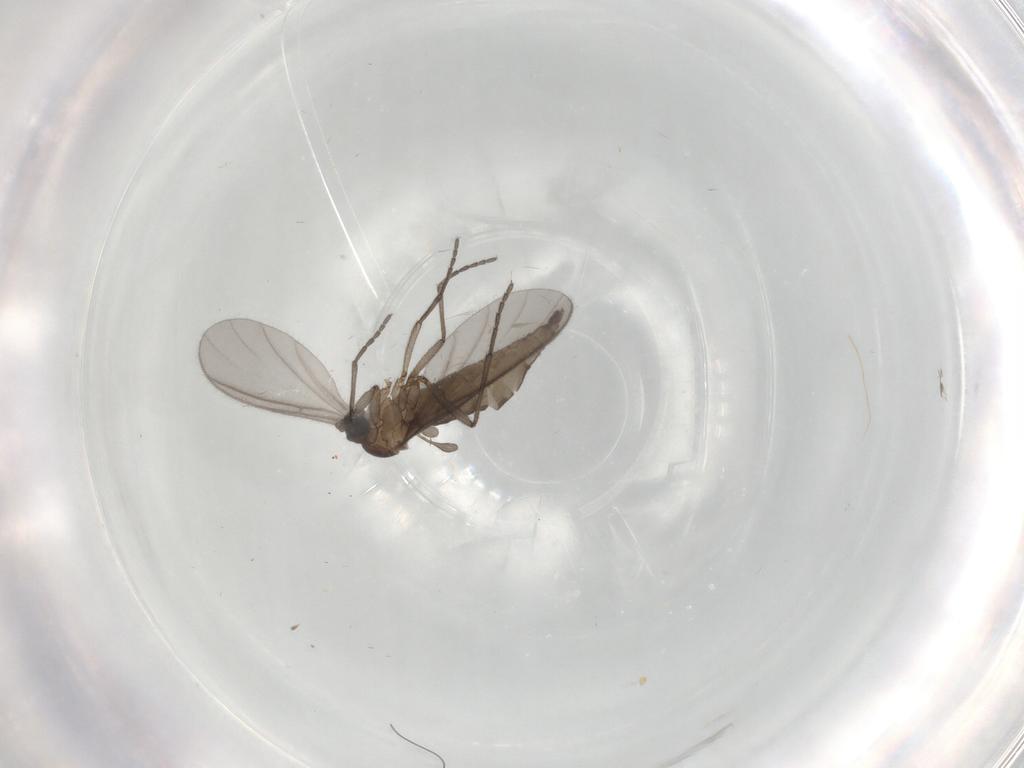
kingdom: Animalia
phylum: Arthropoda
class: Insecta
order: Diptera
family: Sciaridae
